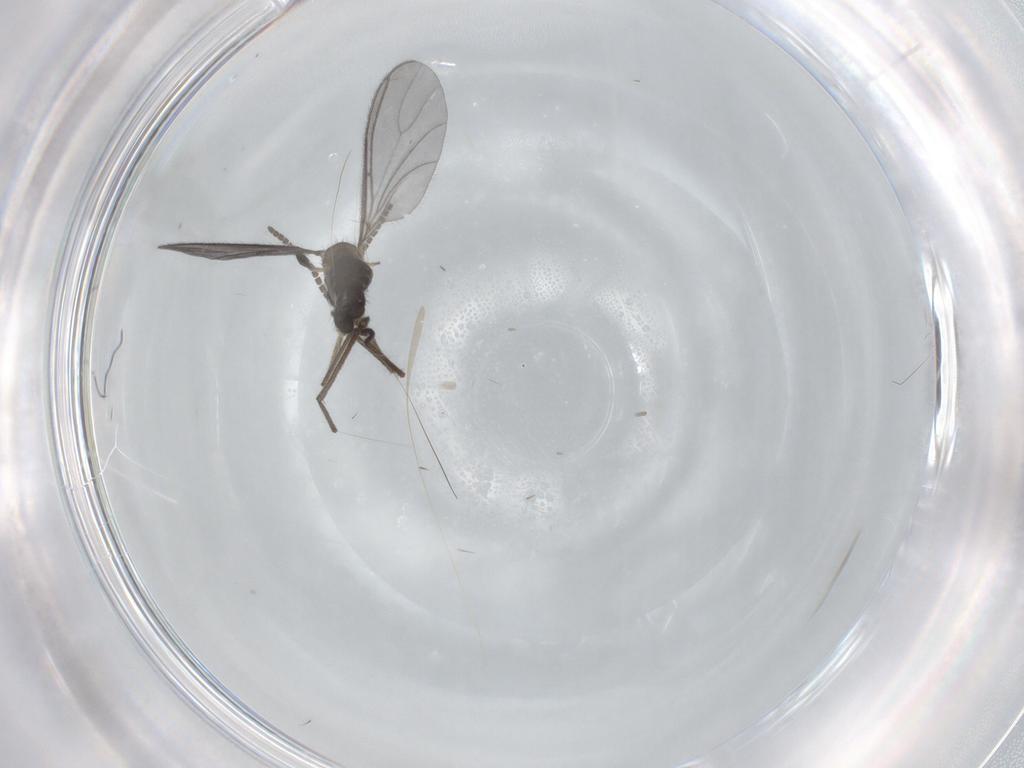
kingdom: Animalia
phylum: Arthropoda
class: Insecta
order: Diptera
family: Sciaridae
